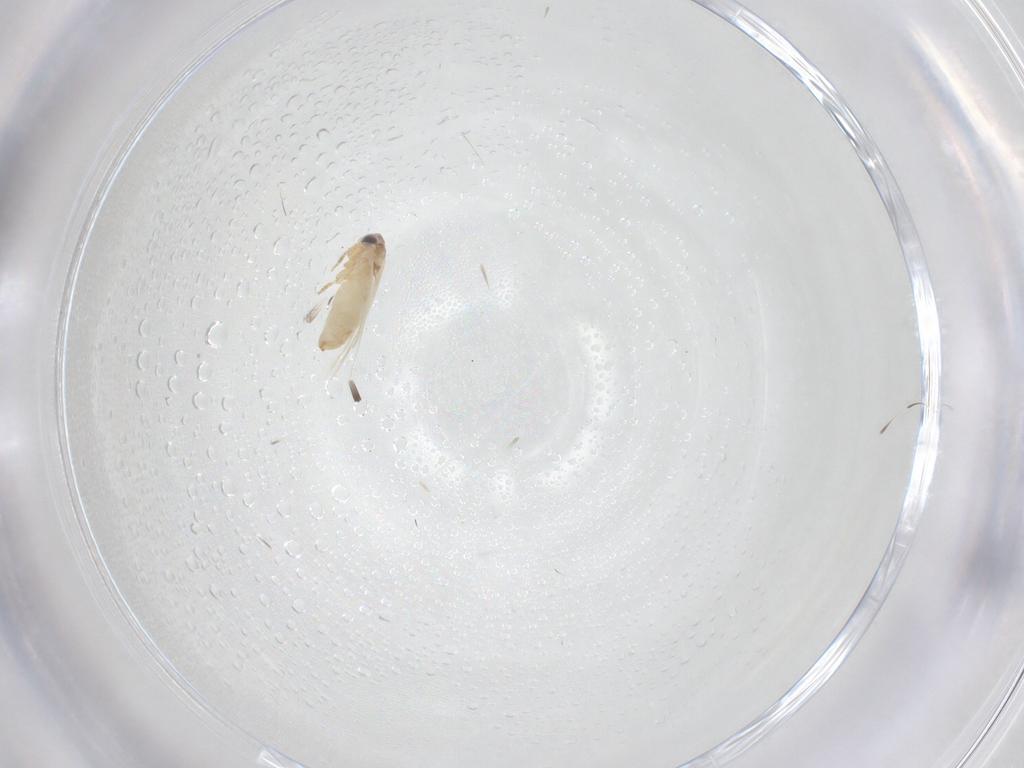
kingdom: Animalia
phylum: Arthropoda
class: Insecta
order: Lepidoptera
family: Crambidae
